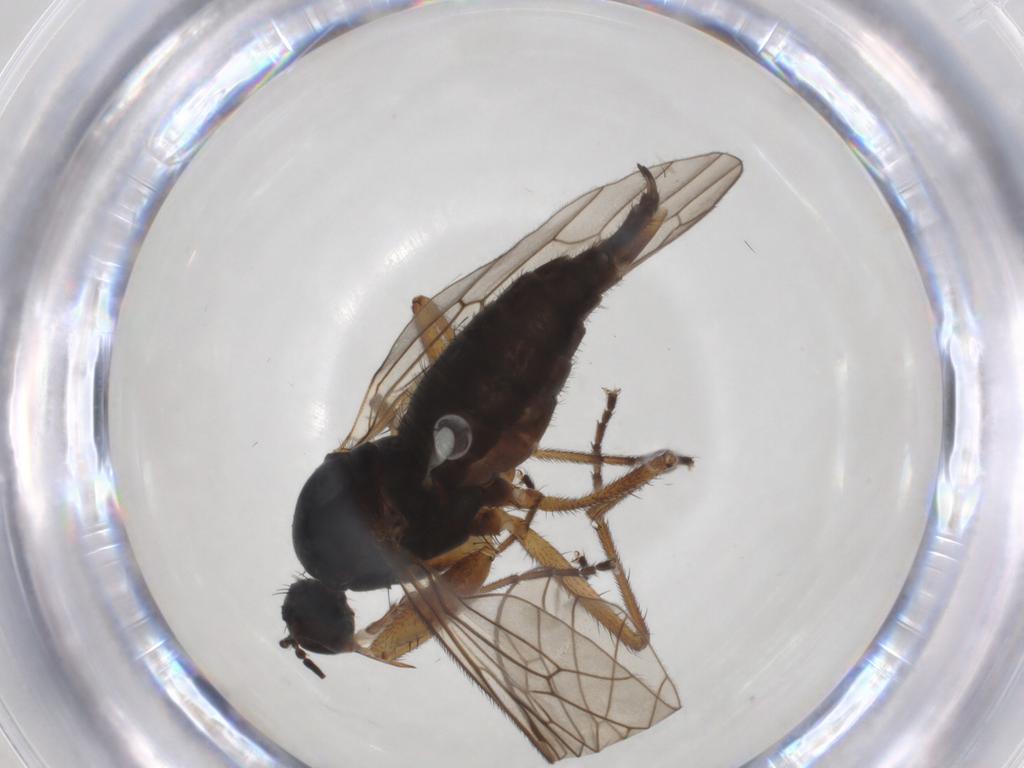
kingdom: Animalia
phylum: Arthropoda
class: Insecta
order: Diptera
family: Empididae
